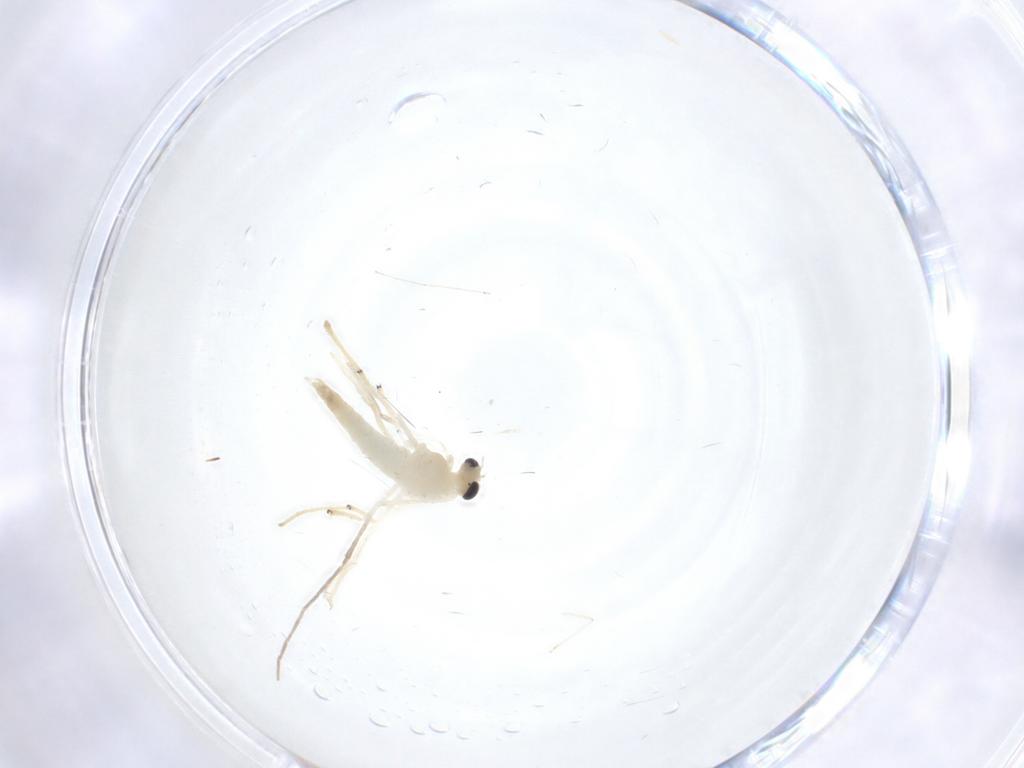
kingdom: Animalia
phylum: Arthropoda
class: Insecta
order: Diptera
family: Chironomidae
